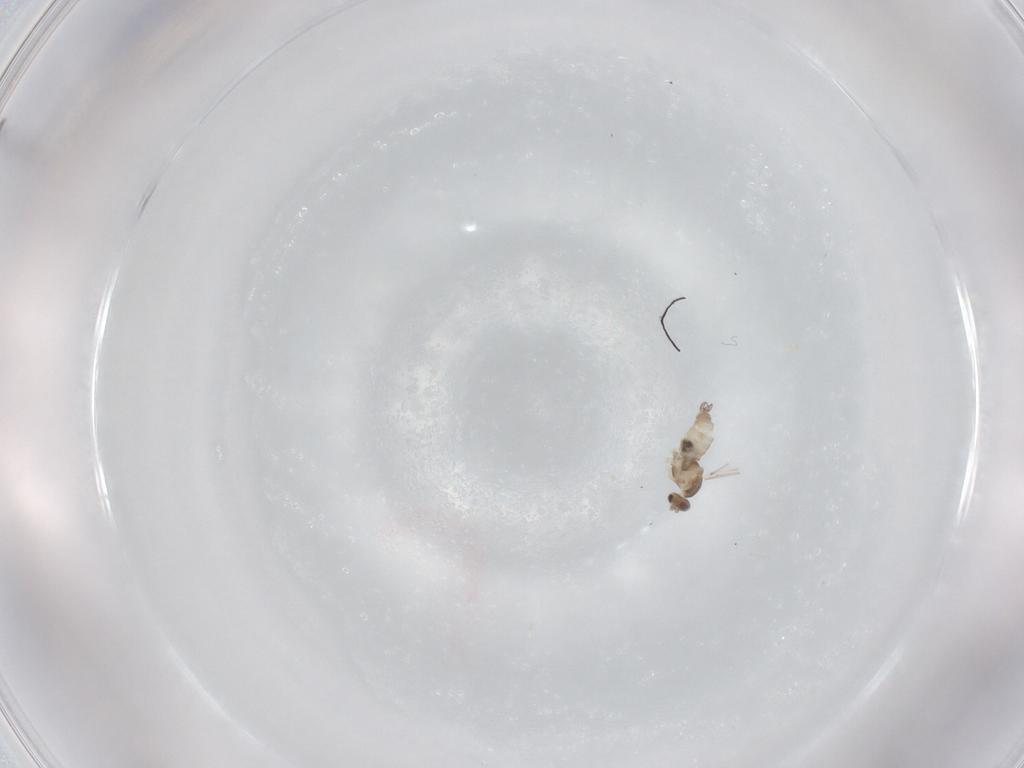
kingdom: Animalia
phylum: Arthropoda
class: Insecta
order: Diptera
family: Cecidomyiidae
